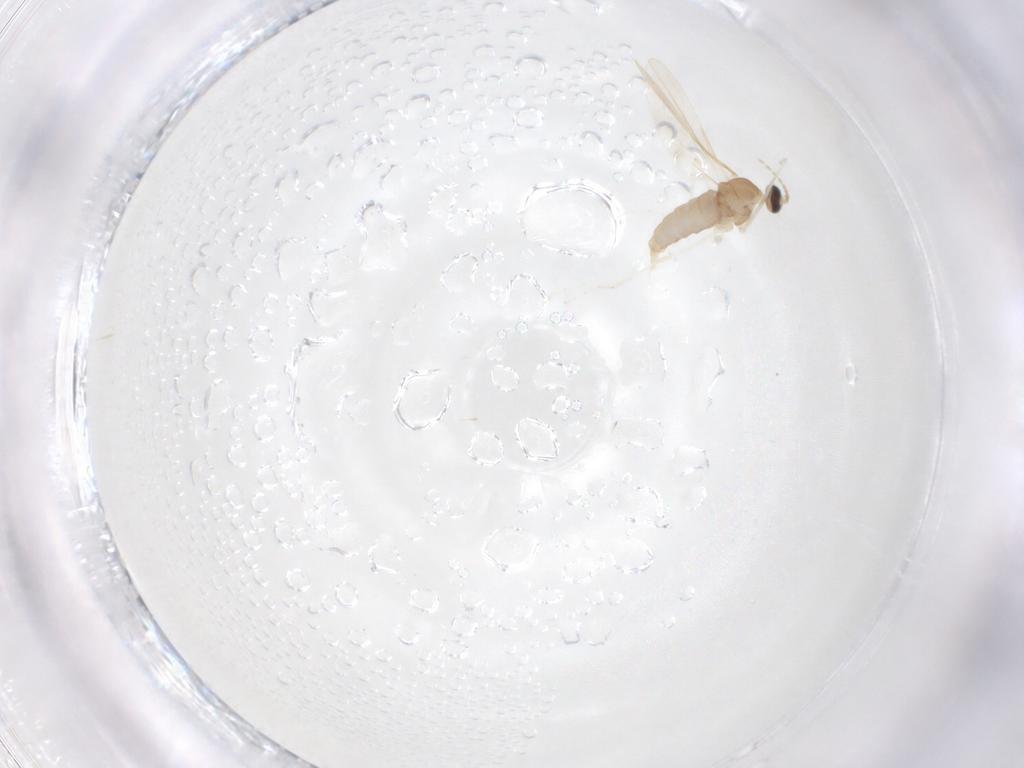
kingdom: Animalia
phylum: Arthropoda
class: Insecta
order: Diptera
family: Cecidomyiidae
